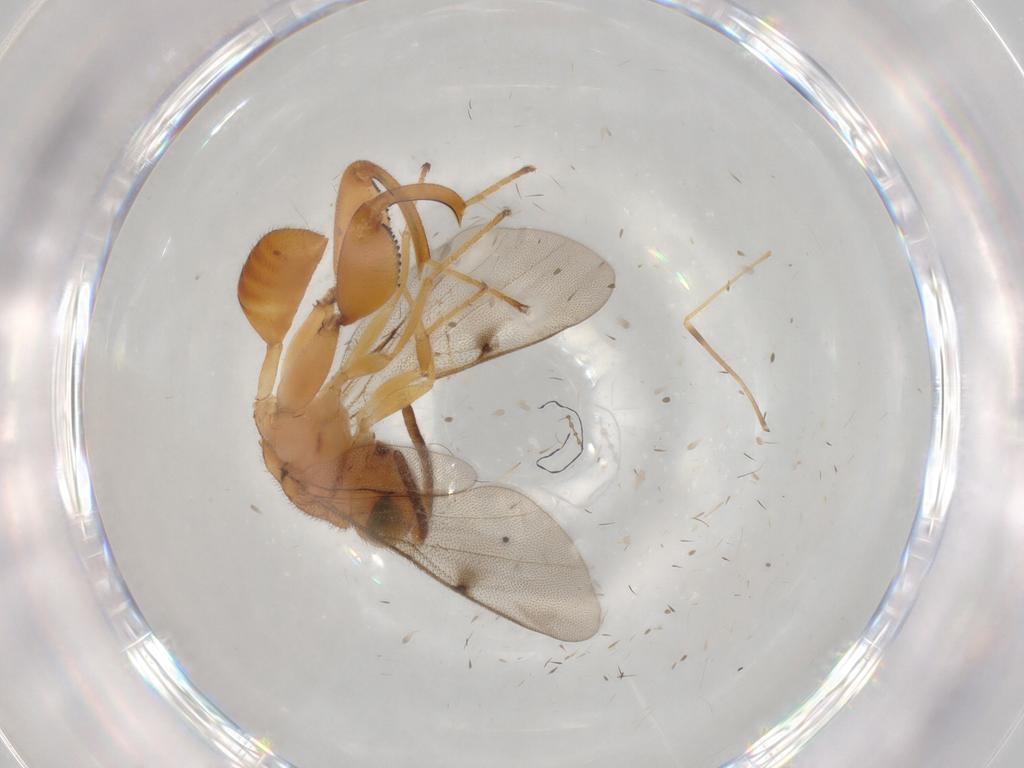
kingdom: Animalia
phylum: Arthropoda
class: Insecta
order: Hymenoptera
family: Chalcididae
